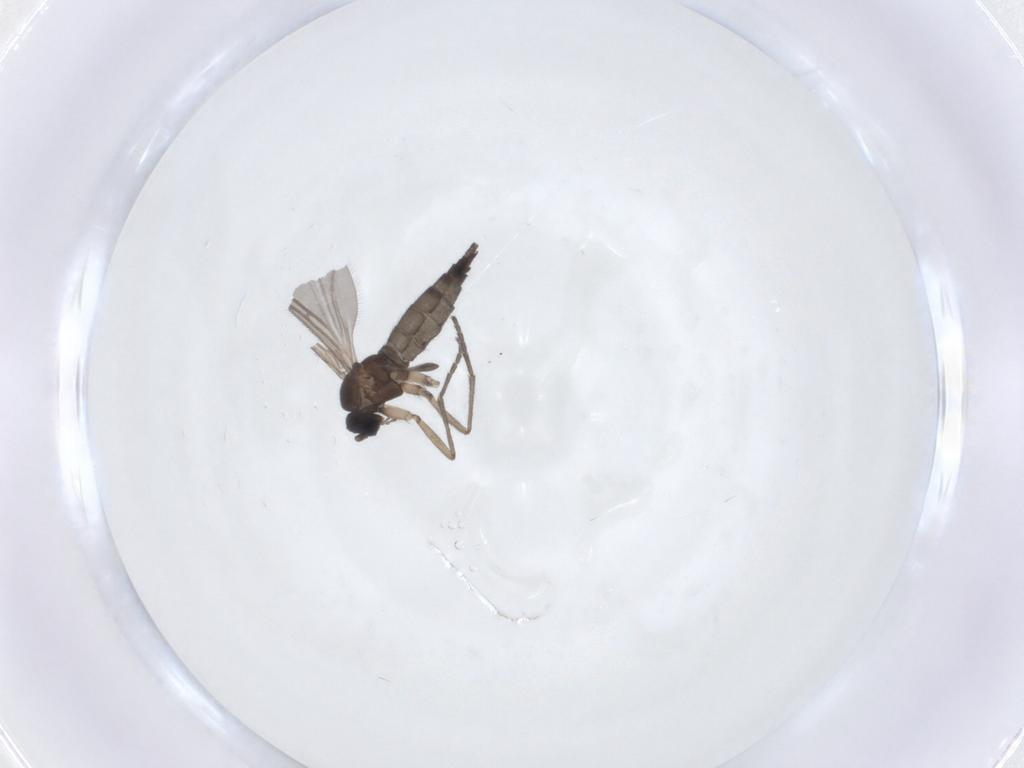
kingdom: Animalia
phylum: Arthropoda
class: Insecta
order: Diptera
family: Sciaridae
